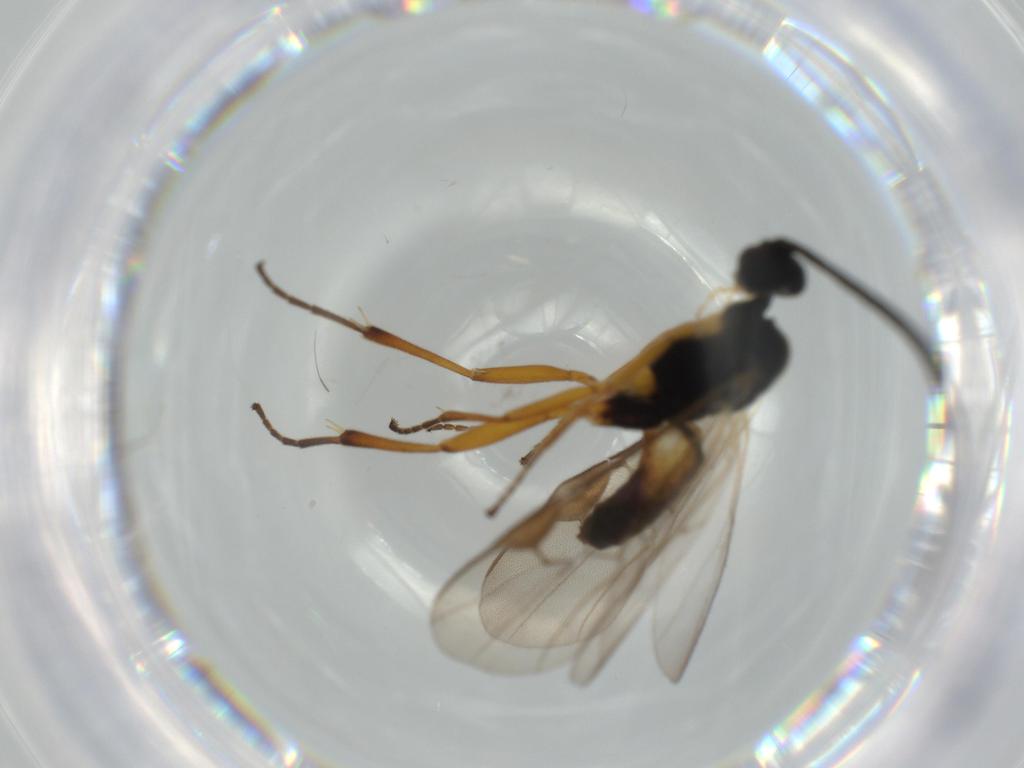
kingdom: Animalia
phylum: Arthropoda
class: Insecta
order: Hymenoptera
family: Braconidae
